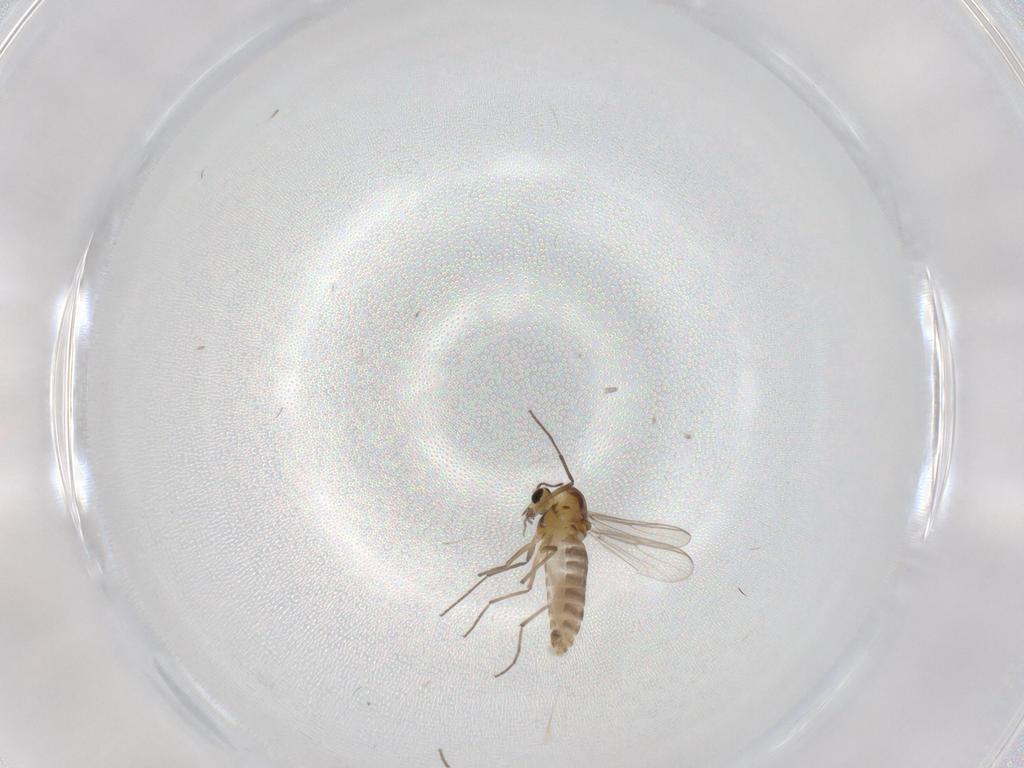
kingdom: Animalia
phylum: Arthropoda
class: Insecta
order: Diptera
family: Chironomidae
